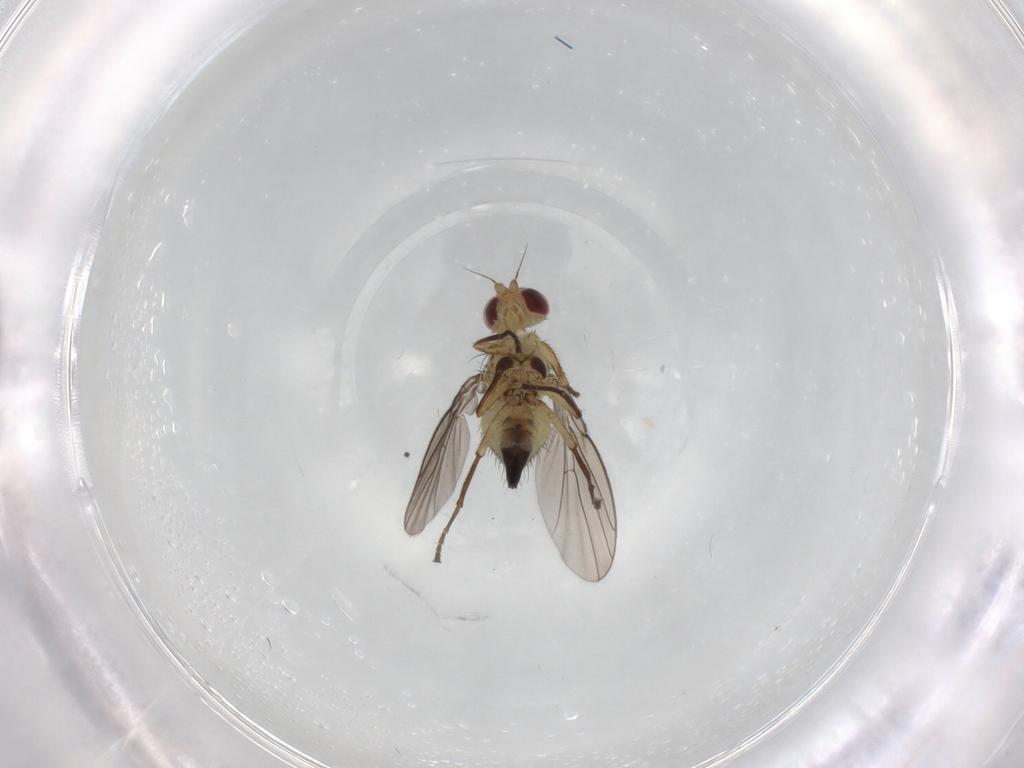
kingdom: Animalia
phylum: Arthropoda
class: Insecta
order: Diptera
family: Agromyzidae
